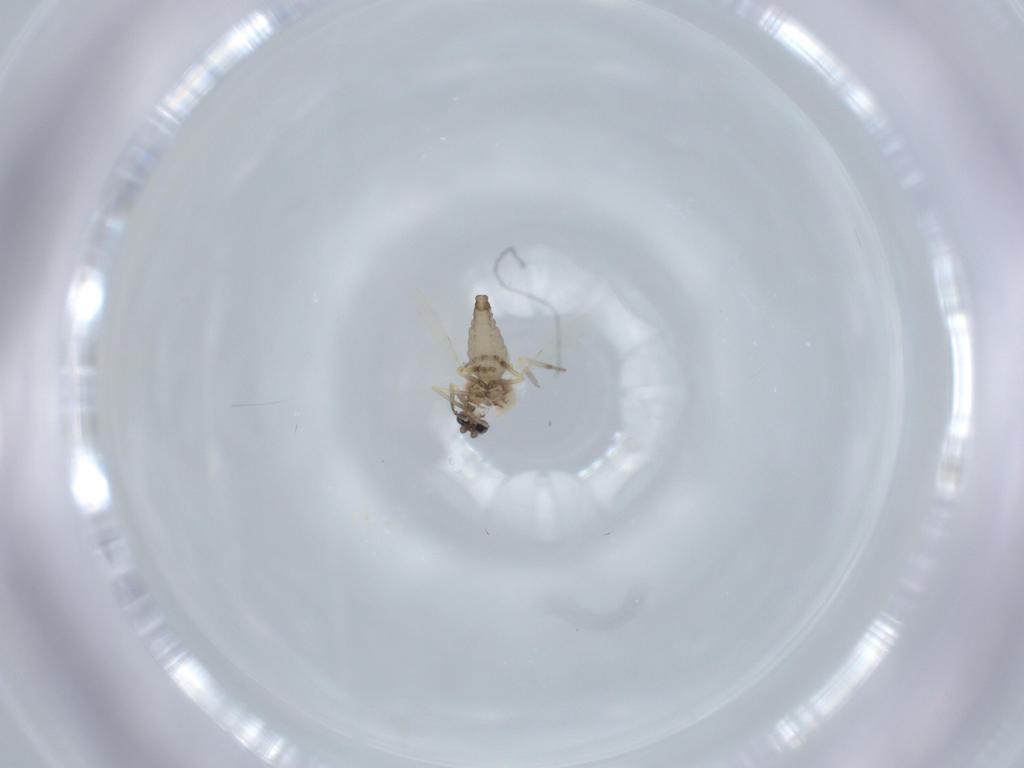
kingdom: Animalia
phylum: Arthropoda
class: Insecta
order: Diptera
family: Ceratopogonidae
